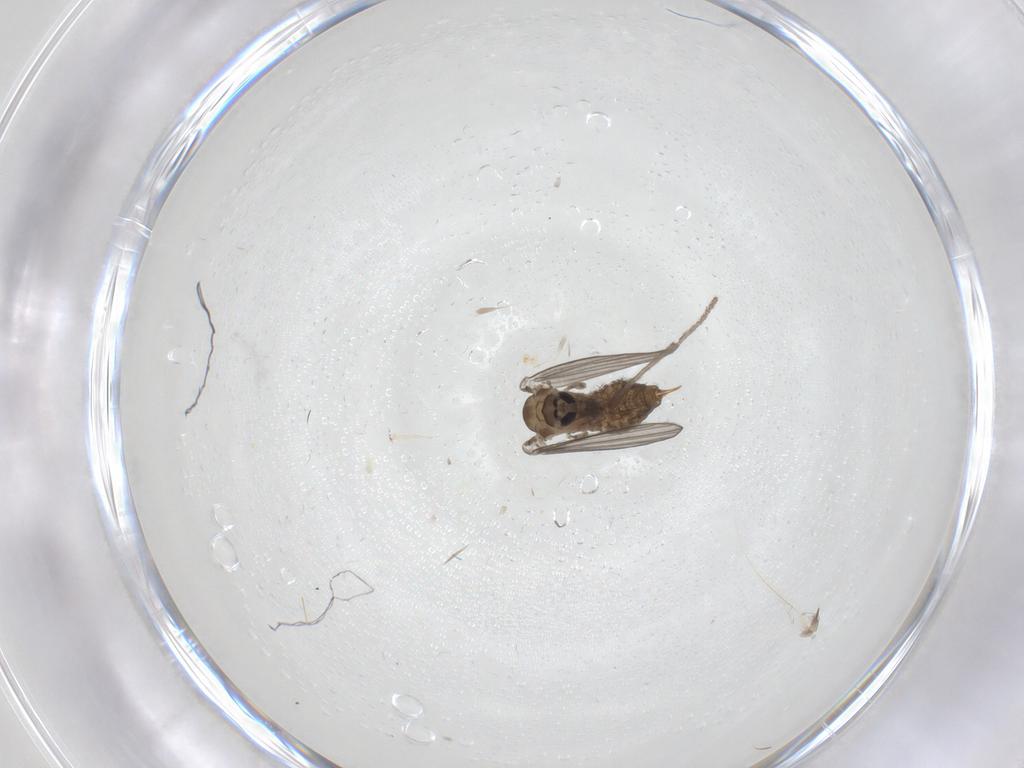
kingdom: Animalia
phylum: Arthropoda
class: Insecta
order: Diptera
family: Psychodidae
